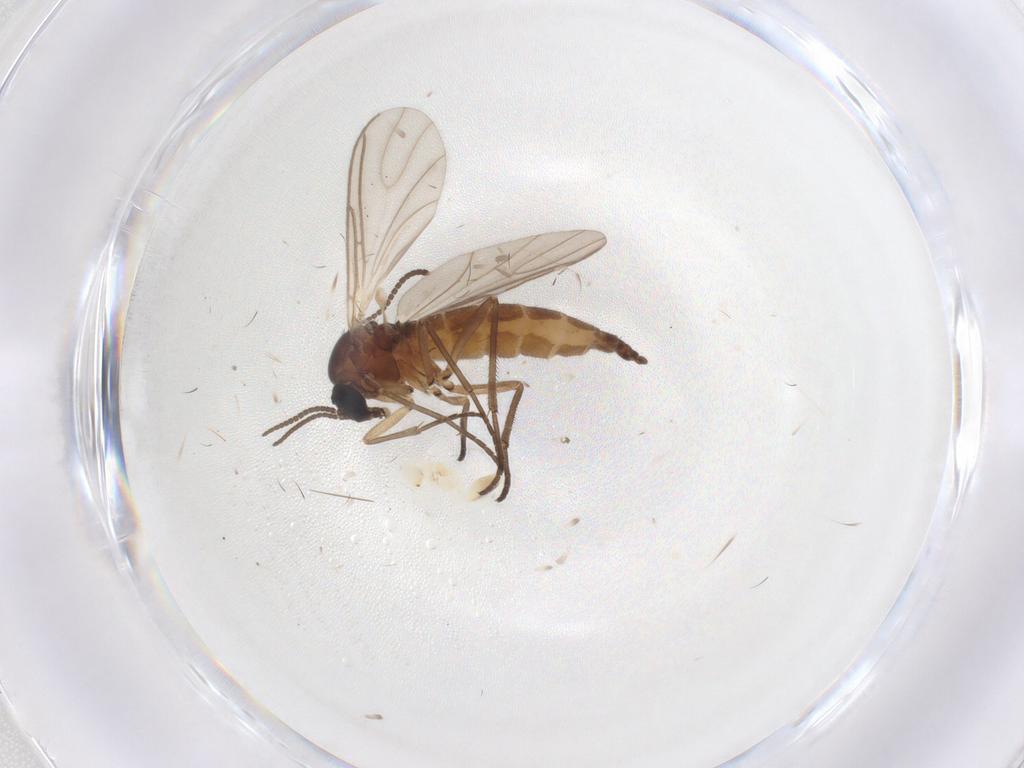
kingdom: Animalia
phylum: Arthropoda
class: Insecta
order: Diptera
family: Sciaridae
